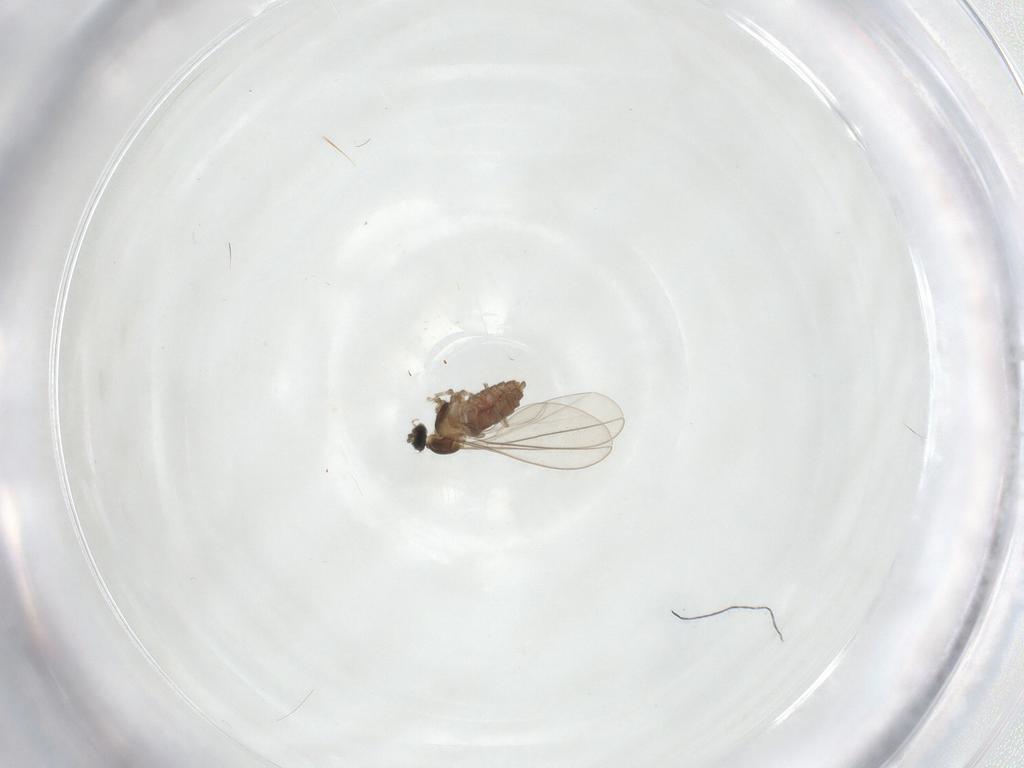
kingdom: Animalia
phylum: Arthropoda
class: Insecta
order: Diptera
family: Cecidomyiidae
